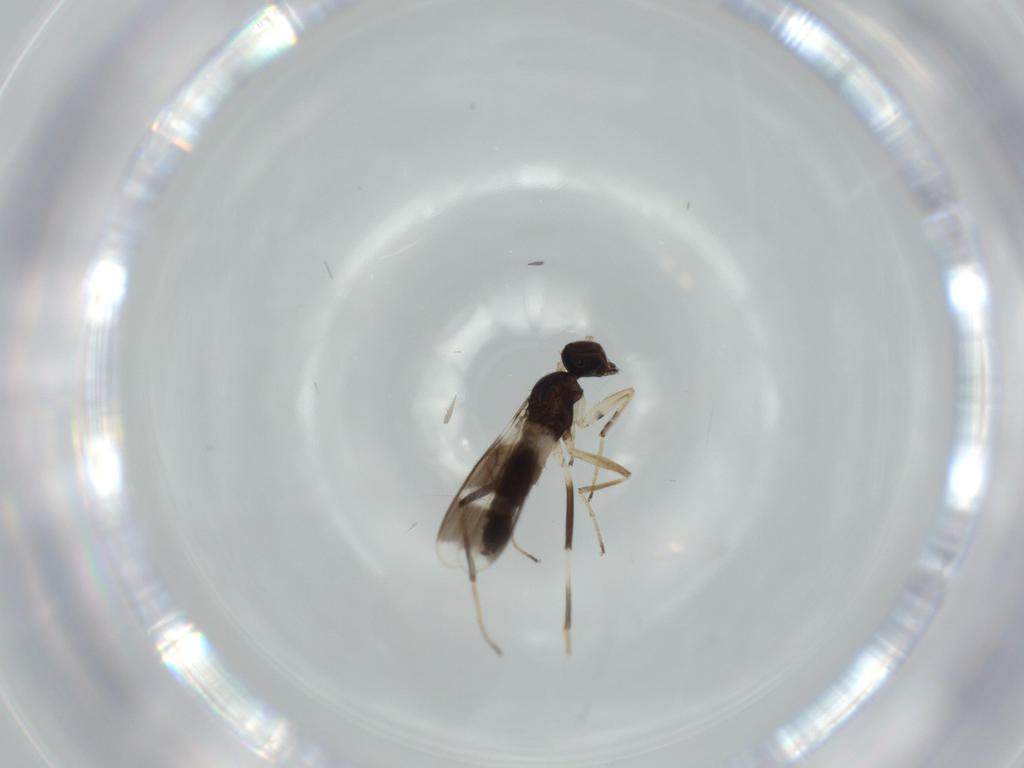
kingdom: Animalia
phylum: Arthropoda
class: Insecta
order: Diptera
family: Hybotidae
